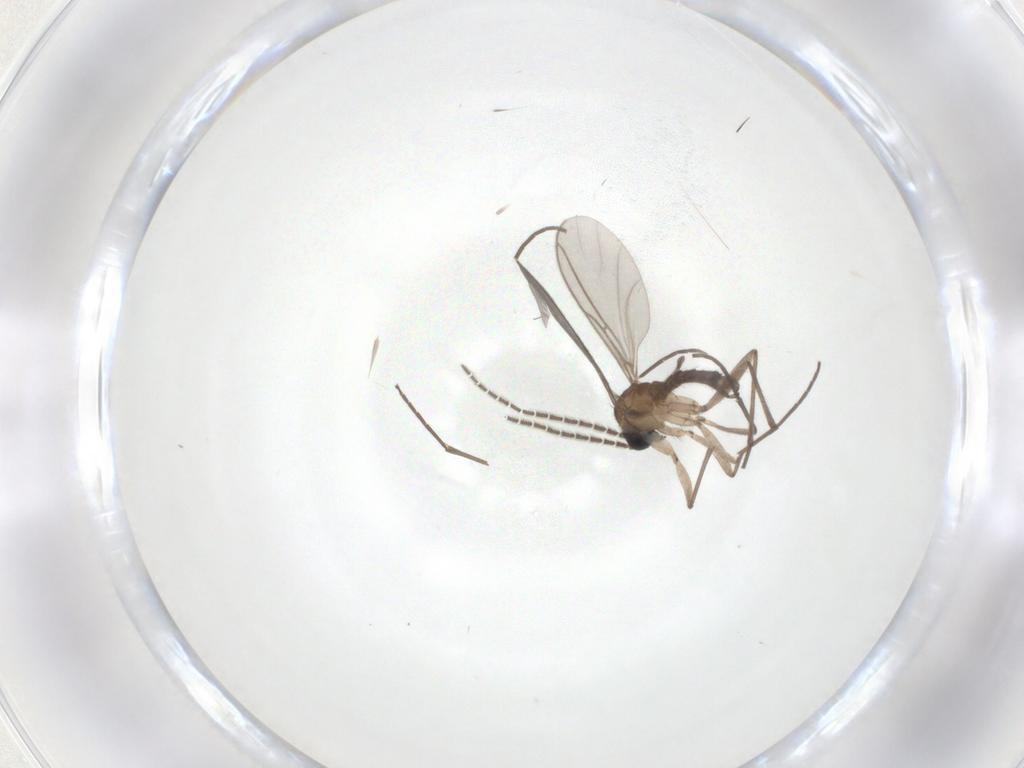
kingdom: Animalia
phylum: Arthropoda
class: Insecta
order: Diptera
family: Sciaridae
